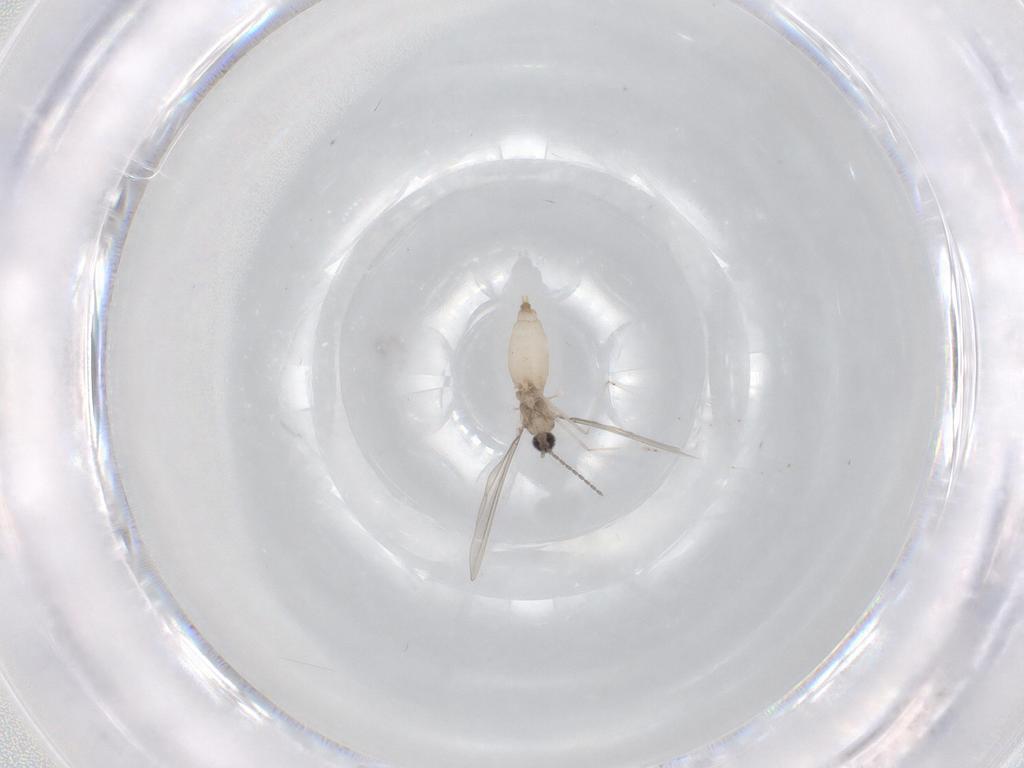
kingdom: Animalia
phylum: Arthropoda
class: Insecta
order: Diptera
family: Cecidomyiidae
